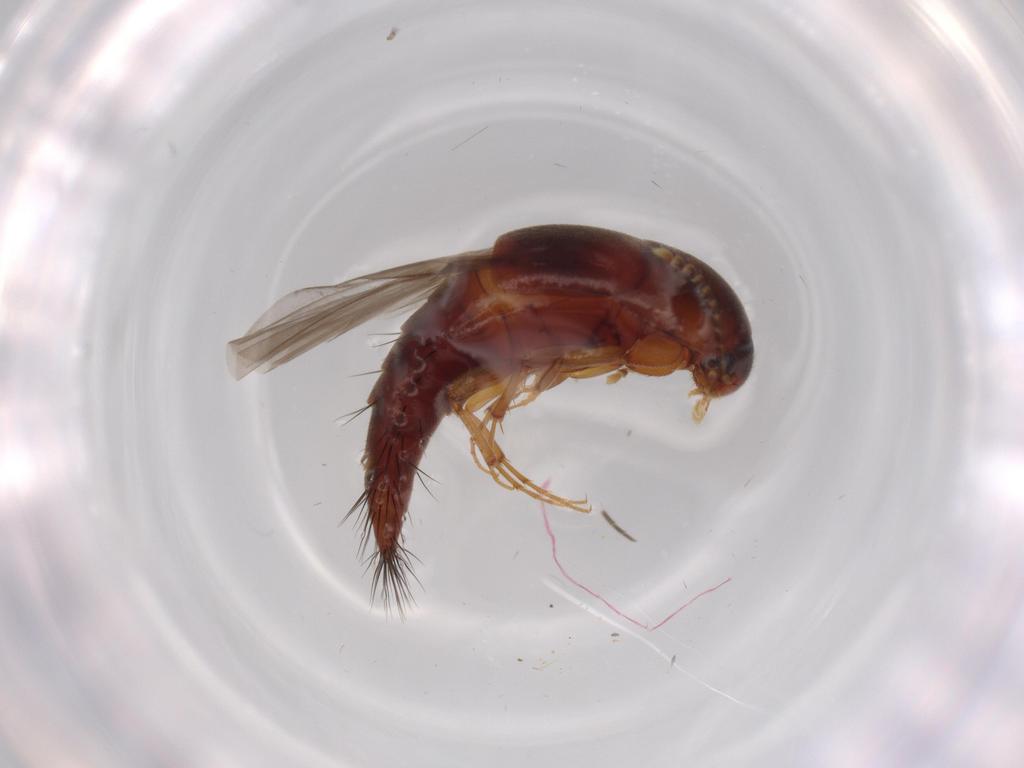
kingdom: Animalia
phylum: Arthropoda
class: Insecta
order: Coleoptera
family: Staphylinidae
